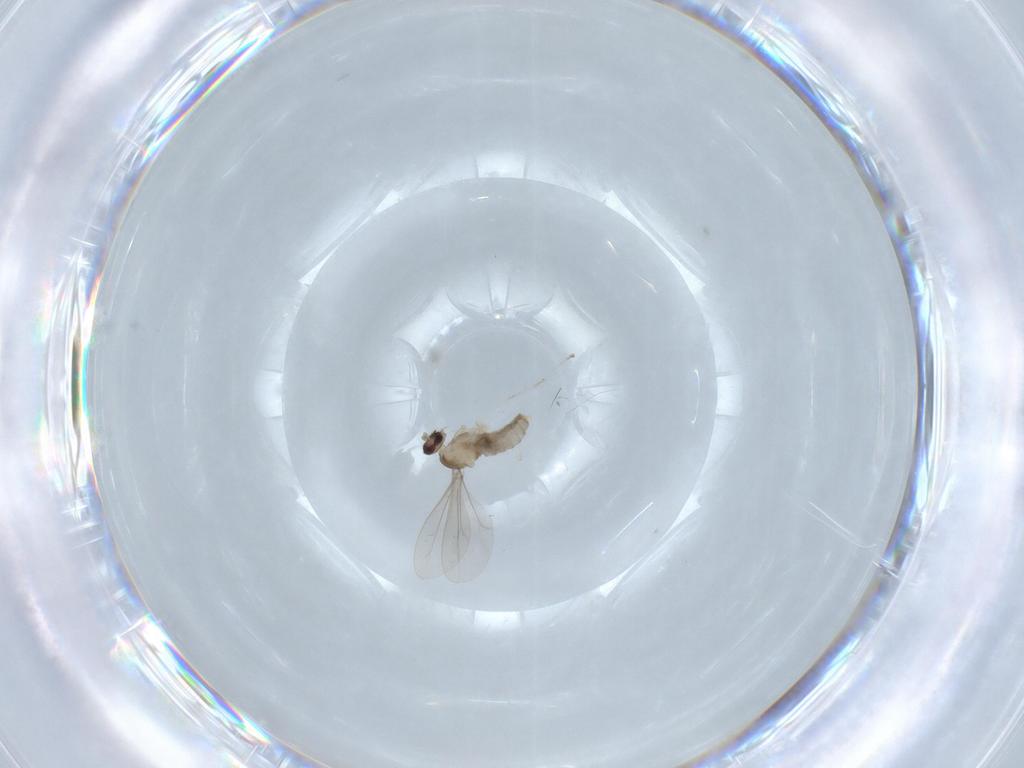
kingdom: Animalia
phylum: Arthropoda
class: Insecta
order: Diptera
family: Cecidomyiidae
